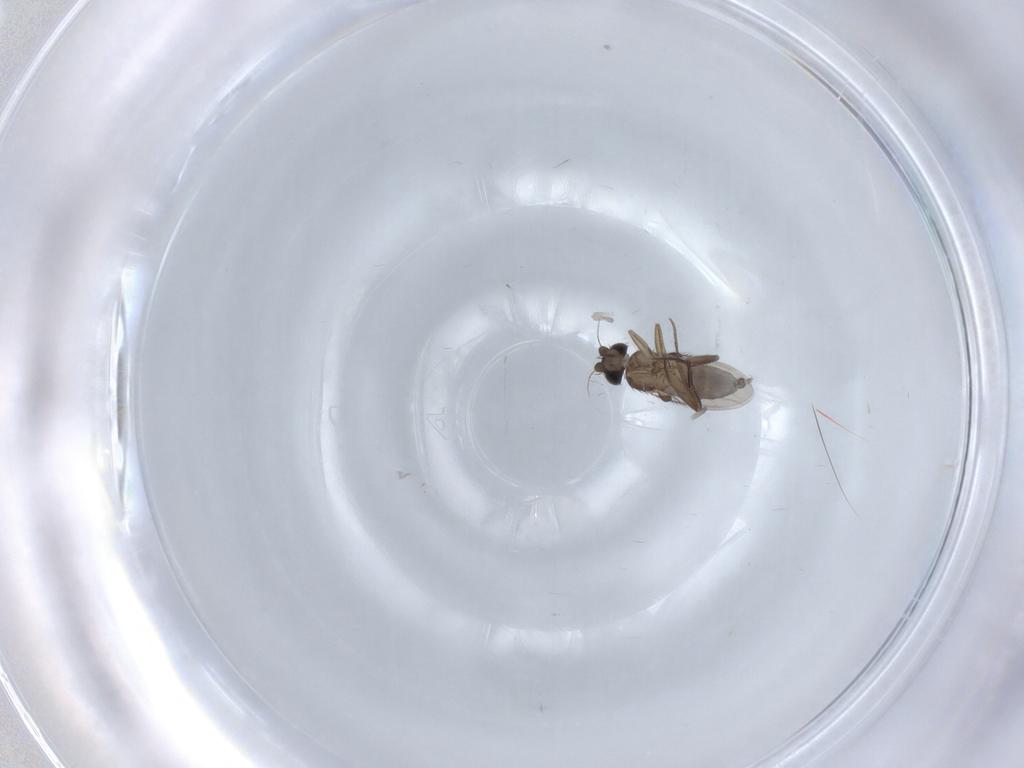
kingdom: Animalia
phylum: Arthropoda
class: Insecta
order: Diptera
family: Phoridae
